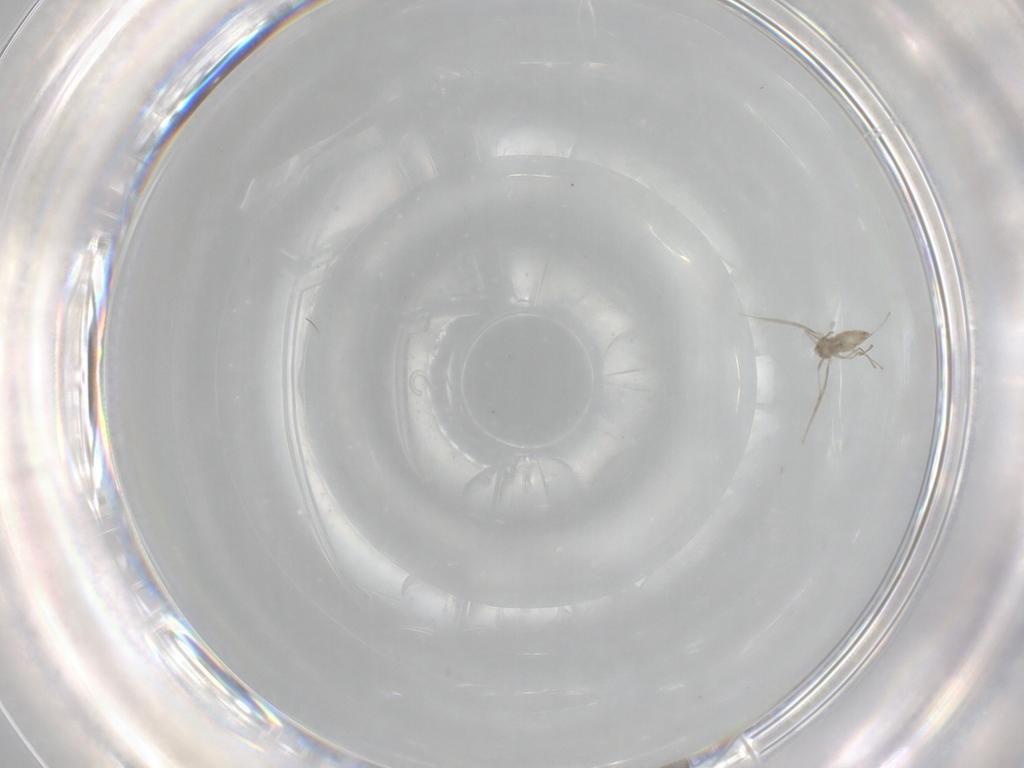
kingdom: Animalia
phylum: Arthropoda
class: Insecta
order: Diptera
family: Cecidomyiidae
